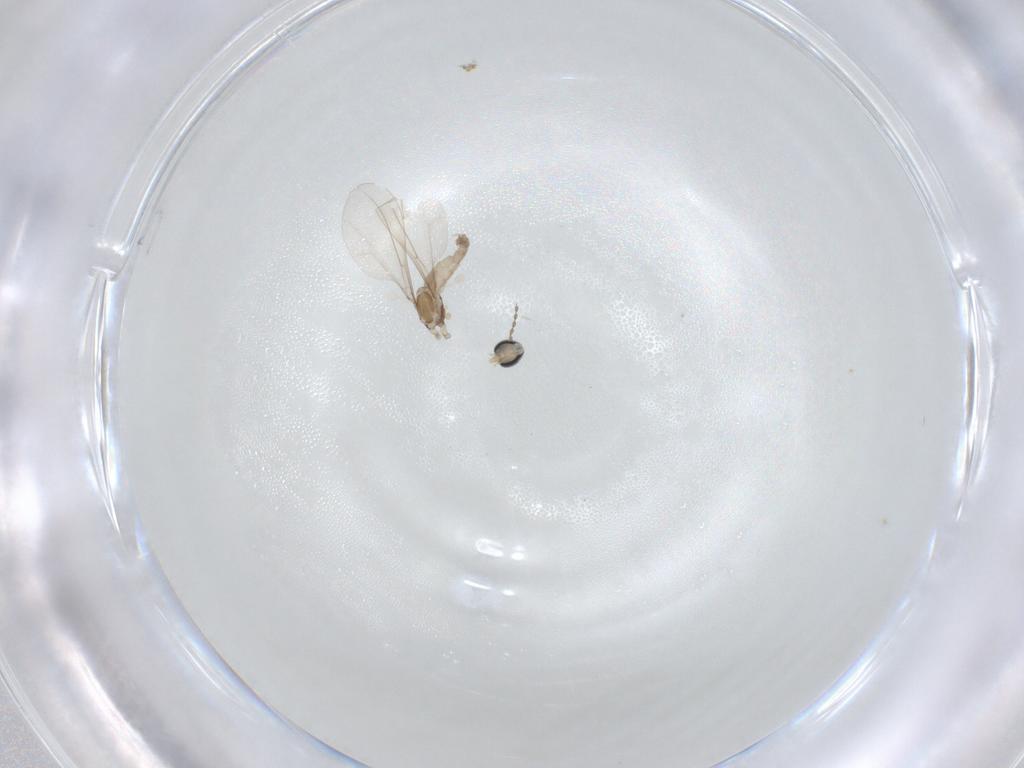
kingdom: Animalia
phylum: Arthropoda
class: Insecta
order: Diptera
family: Cecidomyiidae
